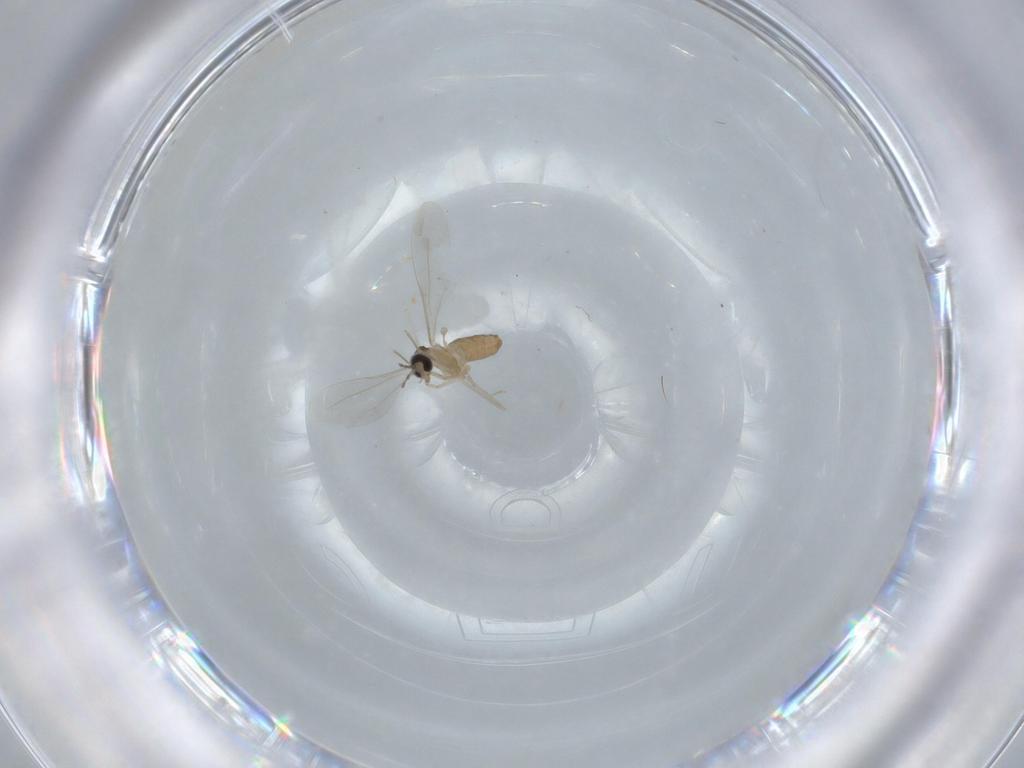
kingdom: Animalia
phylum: Arthropoda
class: Insecta
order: Diptera
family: Cecidomyiidae
